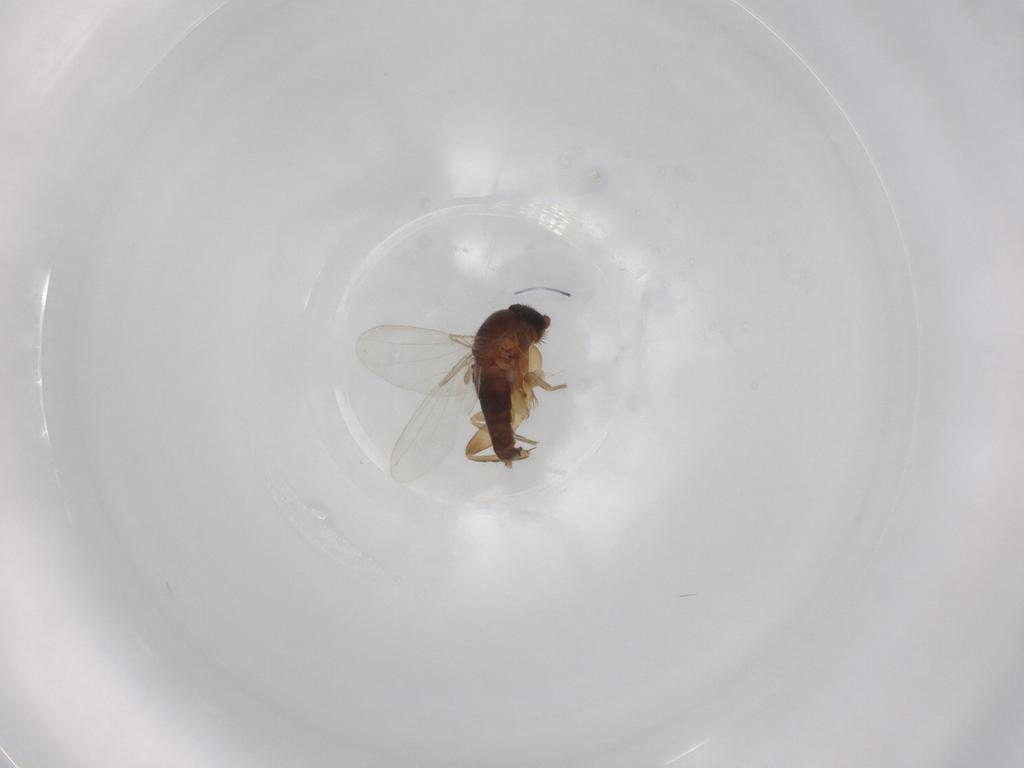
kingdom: Animalia
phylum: Arthropoda
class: Insecta
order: Diptera
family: Phoridae
